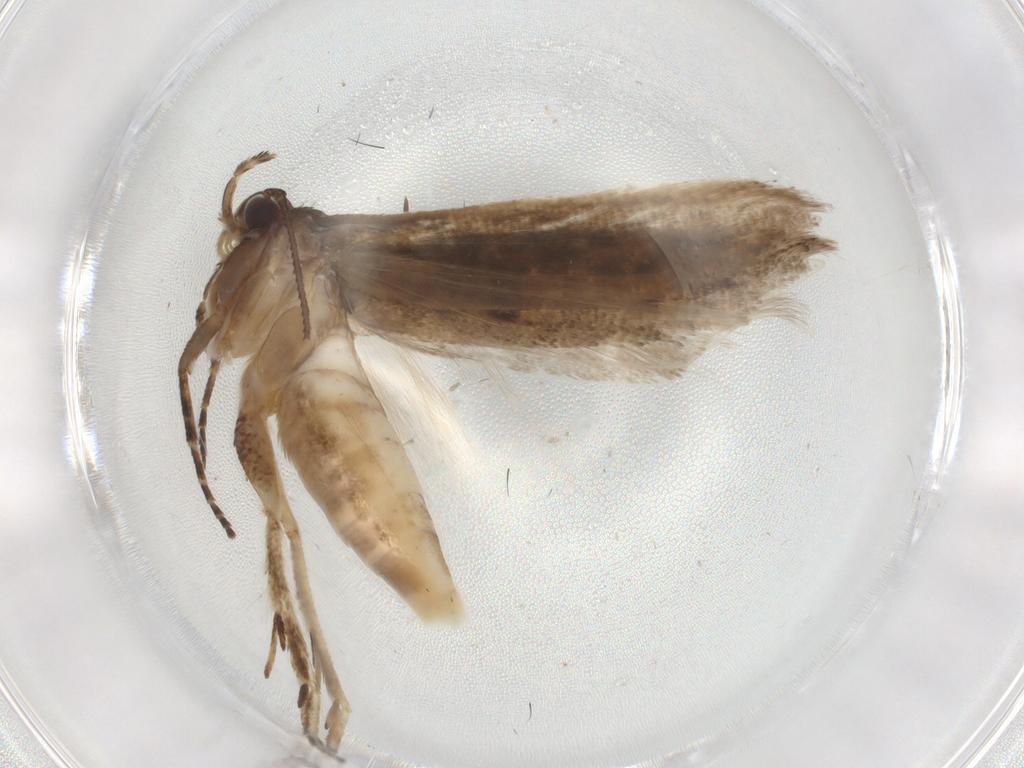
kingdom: Animalia
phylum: Arthropoda
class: Insecta
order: Lepidoptera
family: Gelechiidae
